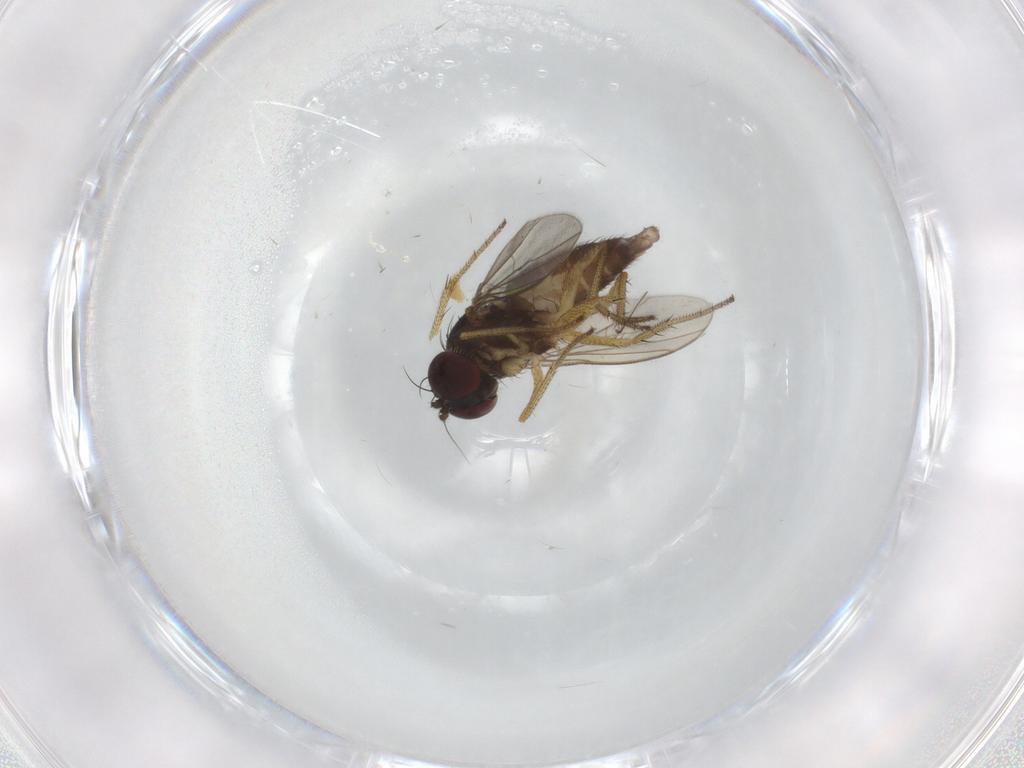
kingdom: Animalia
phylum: Arthropoda
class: Insecta
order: Diptera
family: Chironomidae
